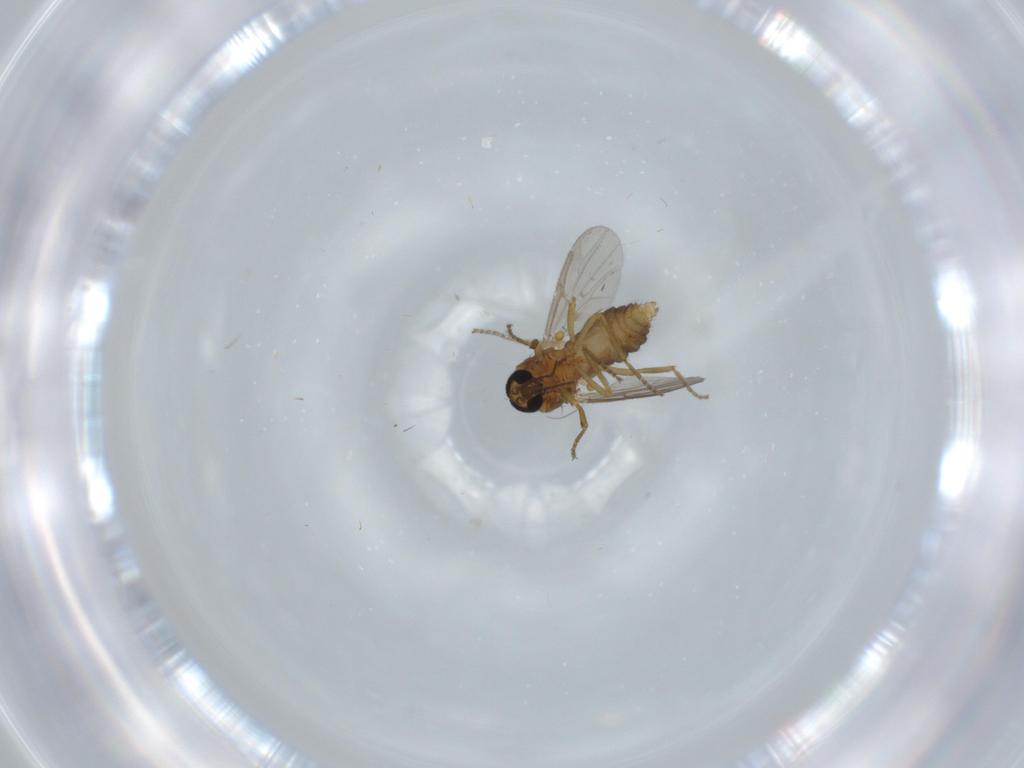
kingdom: Animalia
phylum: Arthropoda
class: Insecta
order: Diptera
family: Ceratopogonidae
